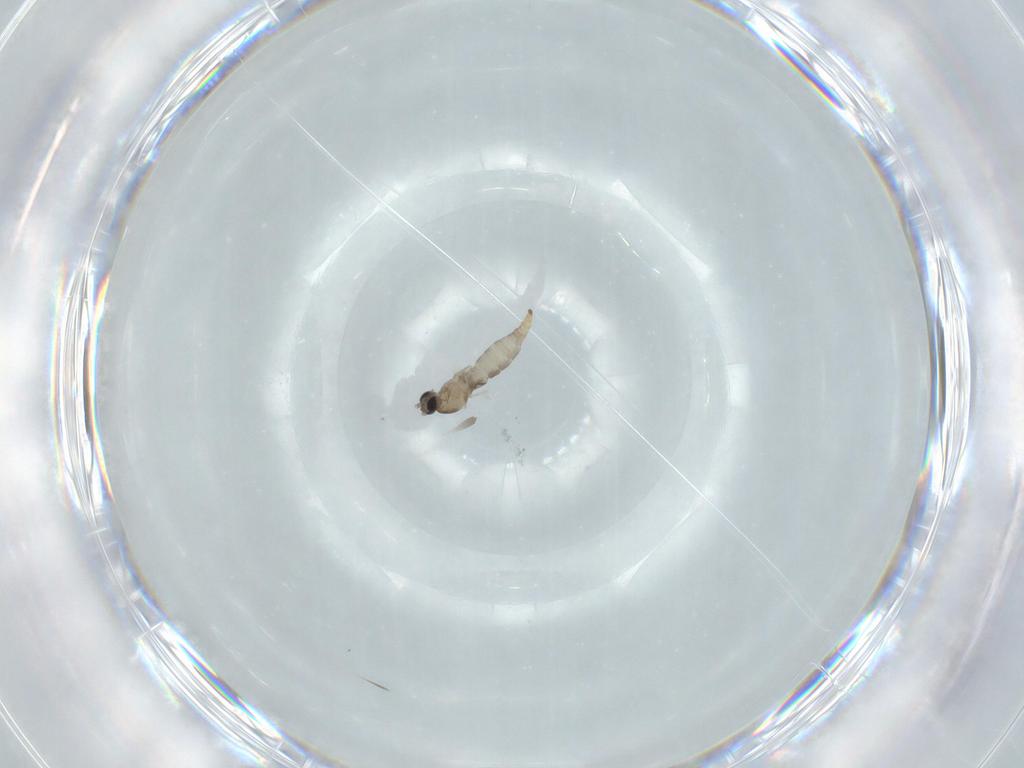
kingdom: Animalia
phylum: Arthropoda
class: Insecta
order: Diptera
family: Cecidomyiidae
